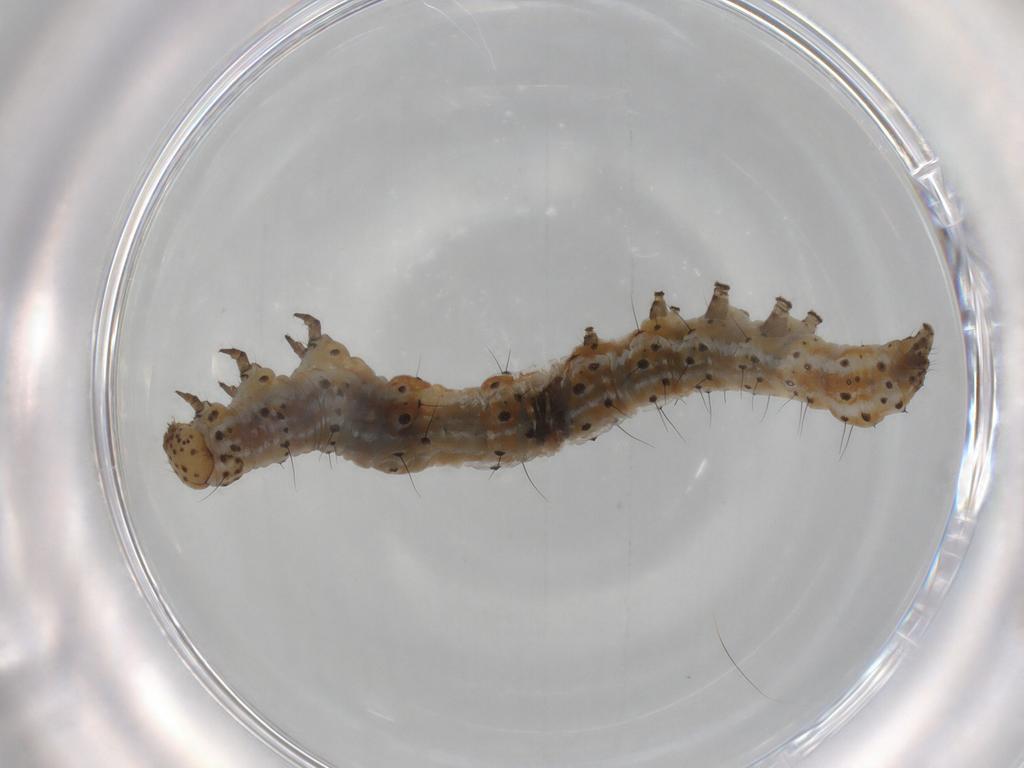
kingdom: Animalia
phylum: Arthropoda
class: Insecta
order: Lepidoptera
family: Noctuidae
